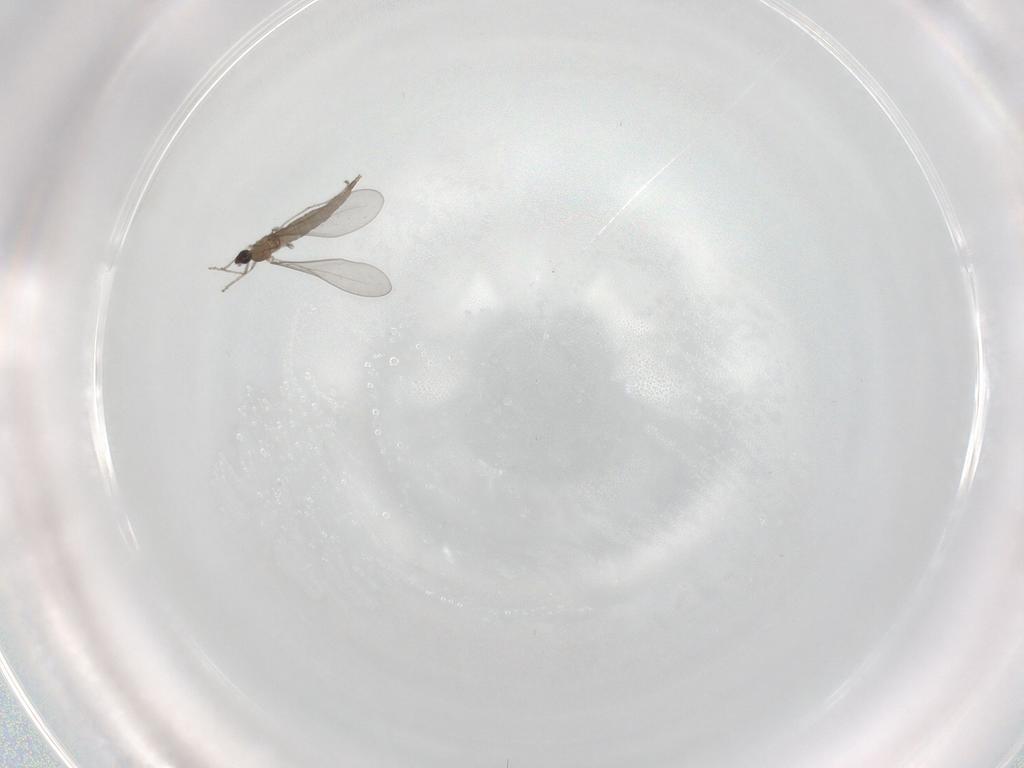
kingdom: Animalia
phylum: Arthropoda
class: Insecta
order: Diptera
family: Cecidomyiidae
